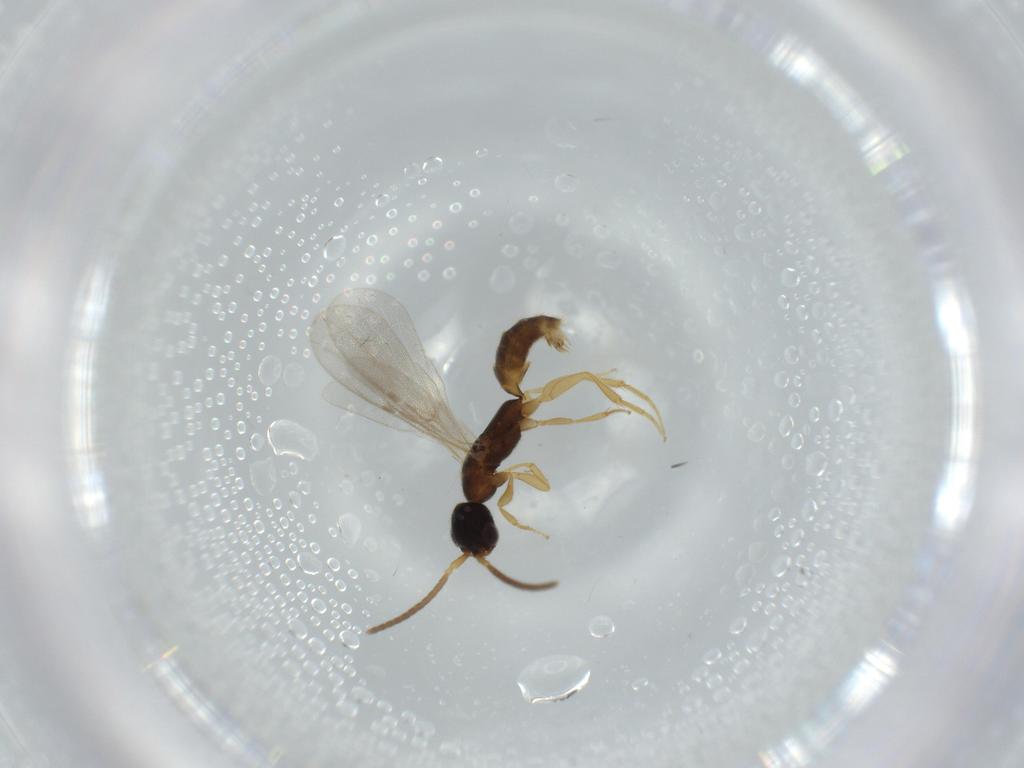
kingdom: Animalia
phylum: Arthropoda
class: Insecta
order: Hymenoptera
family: Bethylidae
